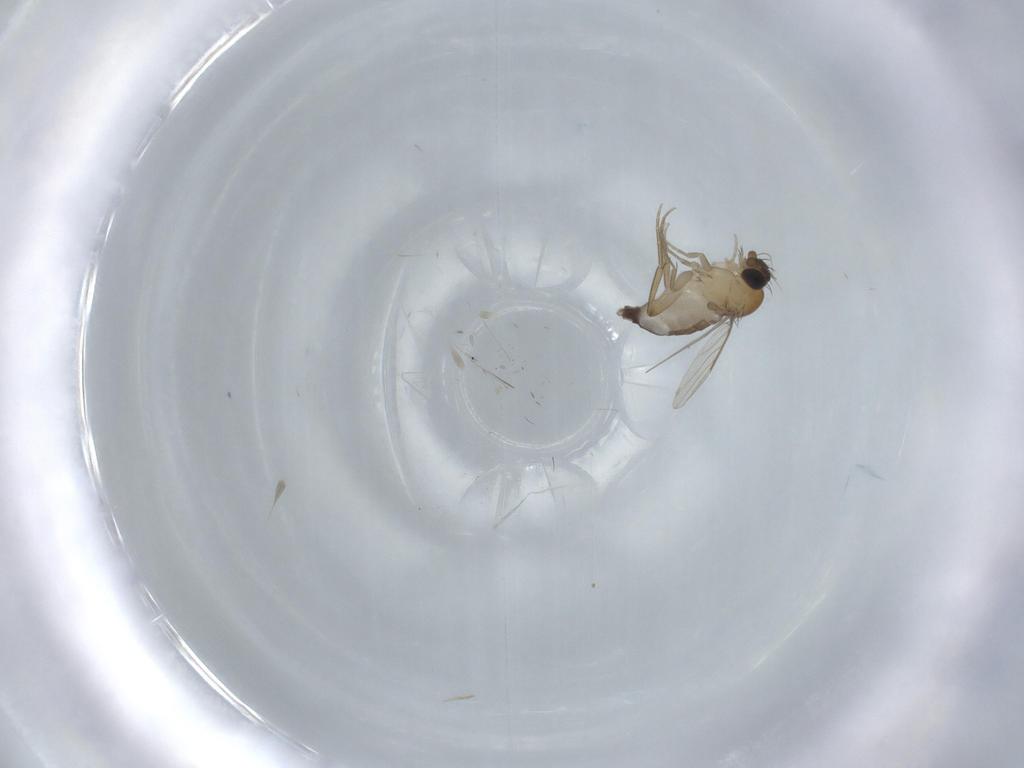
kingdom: Animalia
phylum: Arthropoda
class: Insecta
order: Diptera
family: Phoridae
